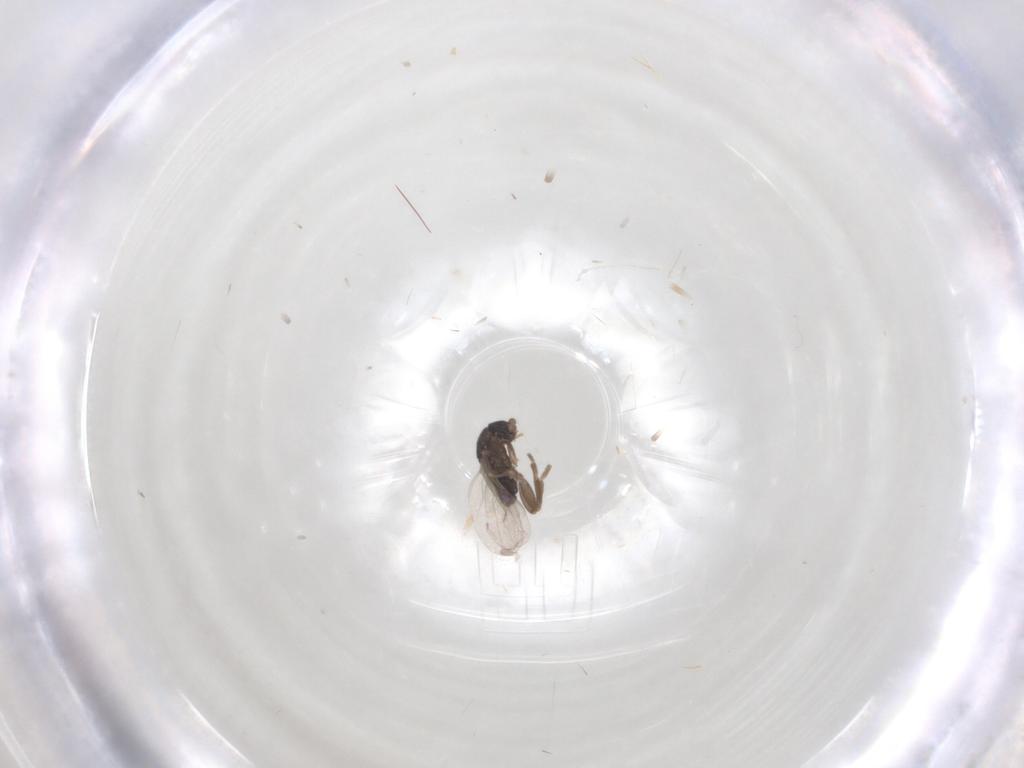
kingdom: Animalia
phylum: Arthropoda
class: Insecta
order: Diptera
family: Phoridae
